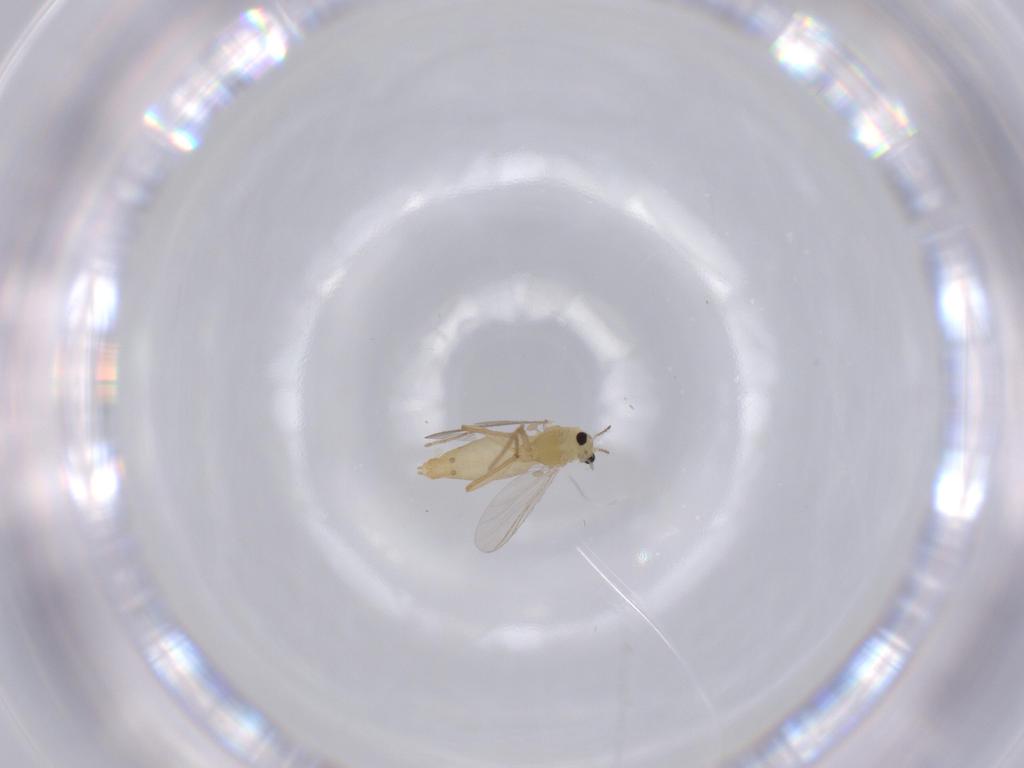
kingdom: Animalia
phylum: Arthropoda
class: Insecta
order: Diptera
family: Chironomidae
